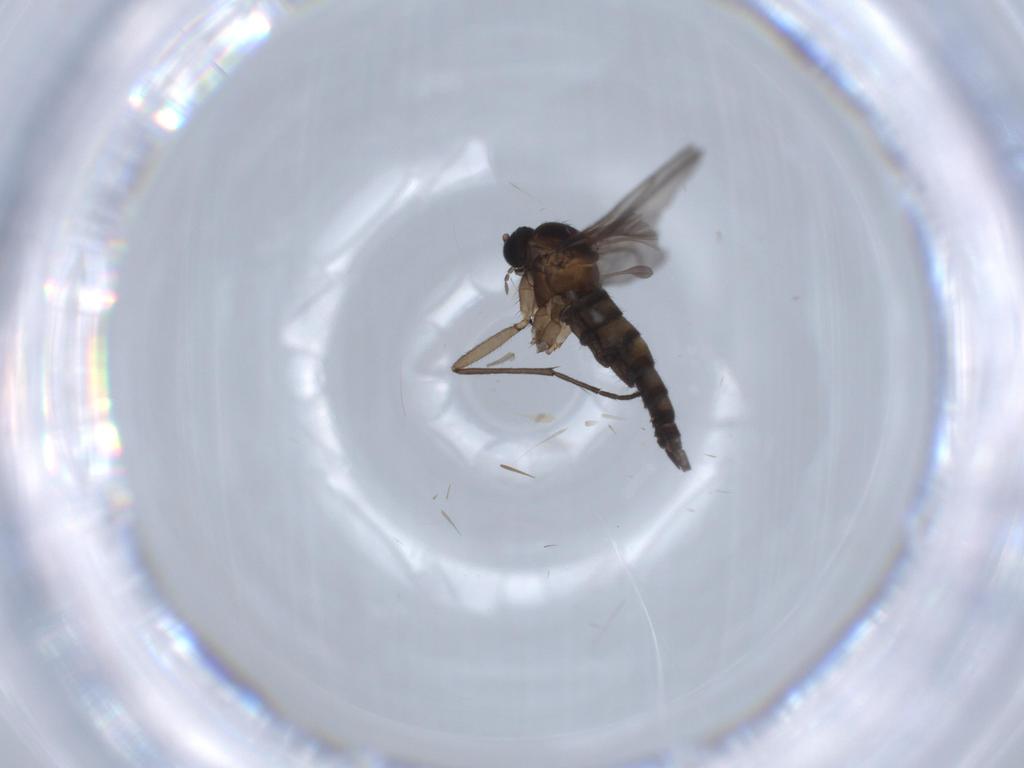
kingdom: Animalia
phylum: Arthropoda
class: Insecta
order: Diptera
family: Sciaridae
